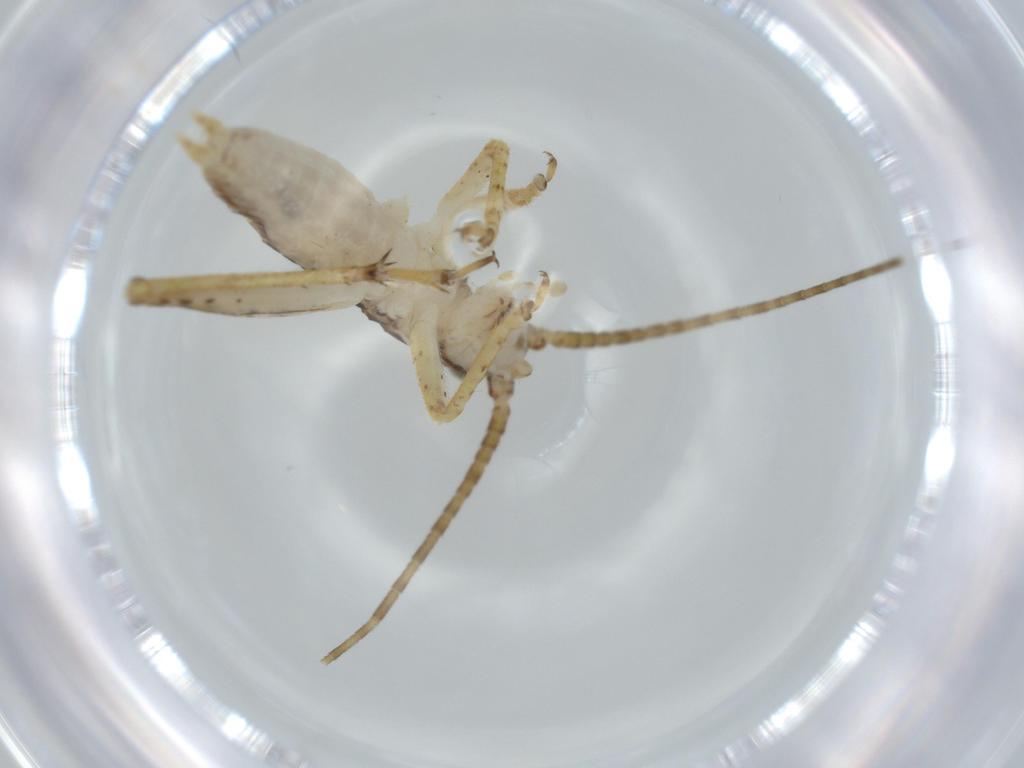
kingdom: Animalia
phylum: Arthropoda
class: Insecta
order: Orthoptera
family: Gryllidae
